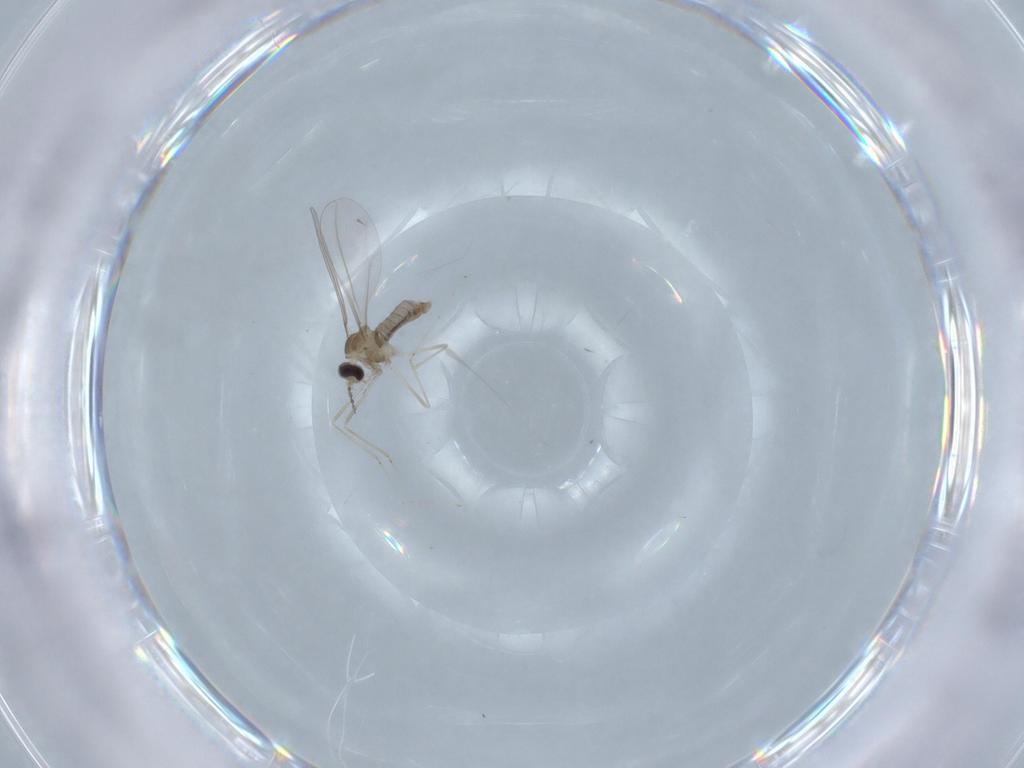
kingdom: Animalia
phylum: Arthropoda
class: Insecta
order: Diptera
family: Cecidomyiidae
